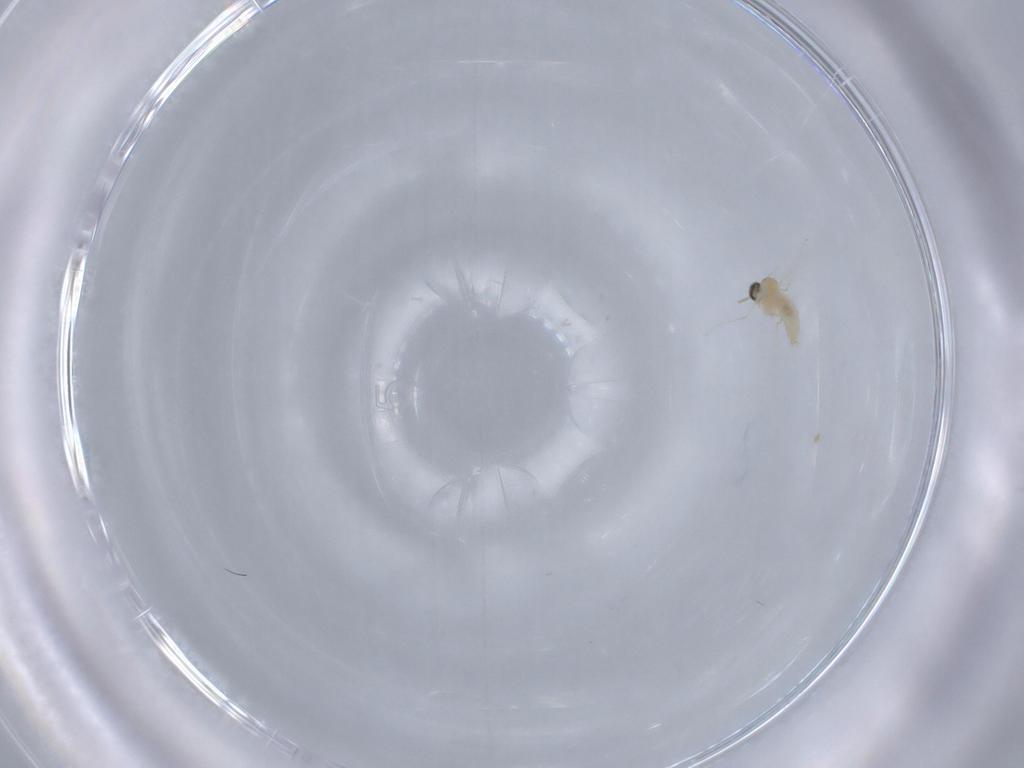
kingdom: Animalia
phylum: Arthropoda
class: Insecta
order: Diptera
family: Cecidomyiidae
